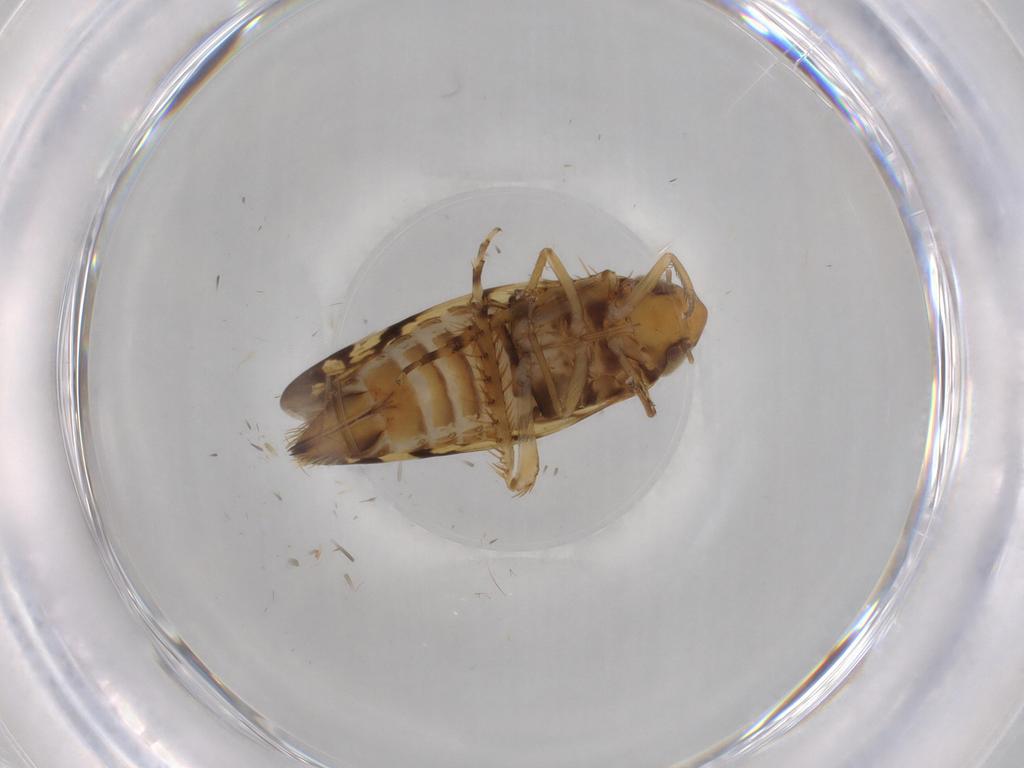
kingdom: Animalia
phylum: Arthropoda
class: Insecta
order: Hemiptera
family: Cicadellidae
